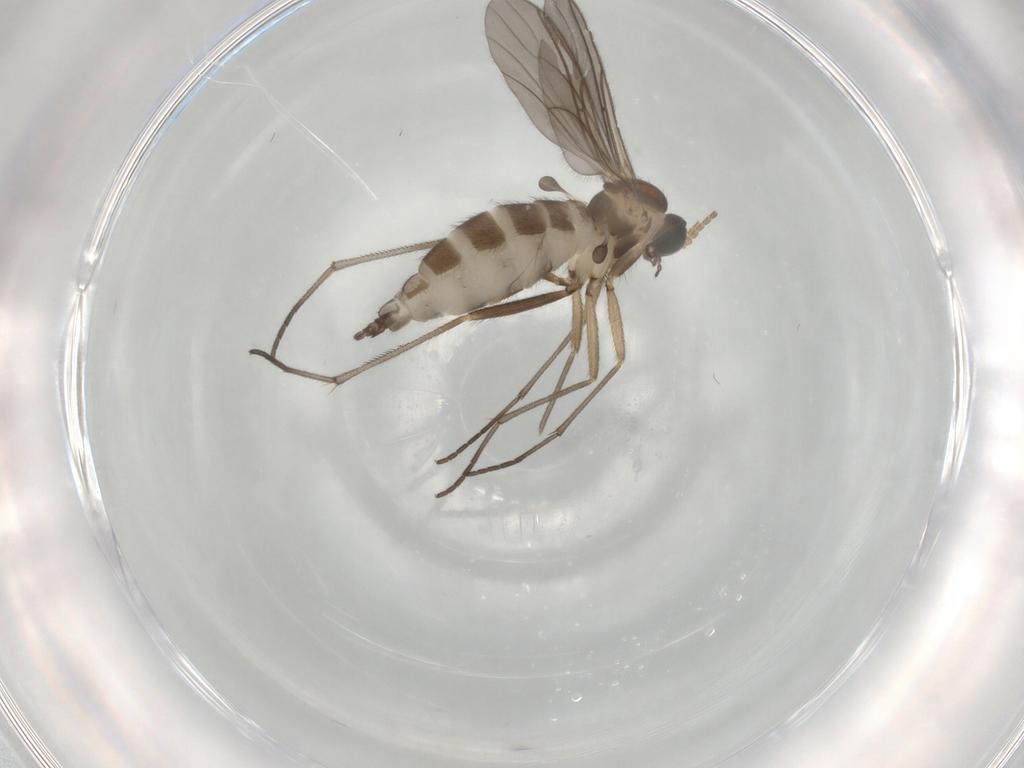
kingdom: Animalia
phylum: Arthropoda
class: Insecta
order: Diptera
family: Sciaridae
